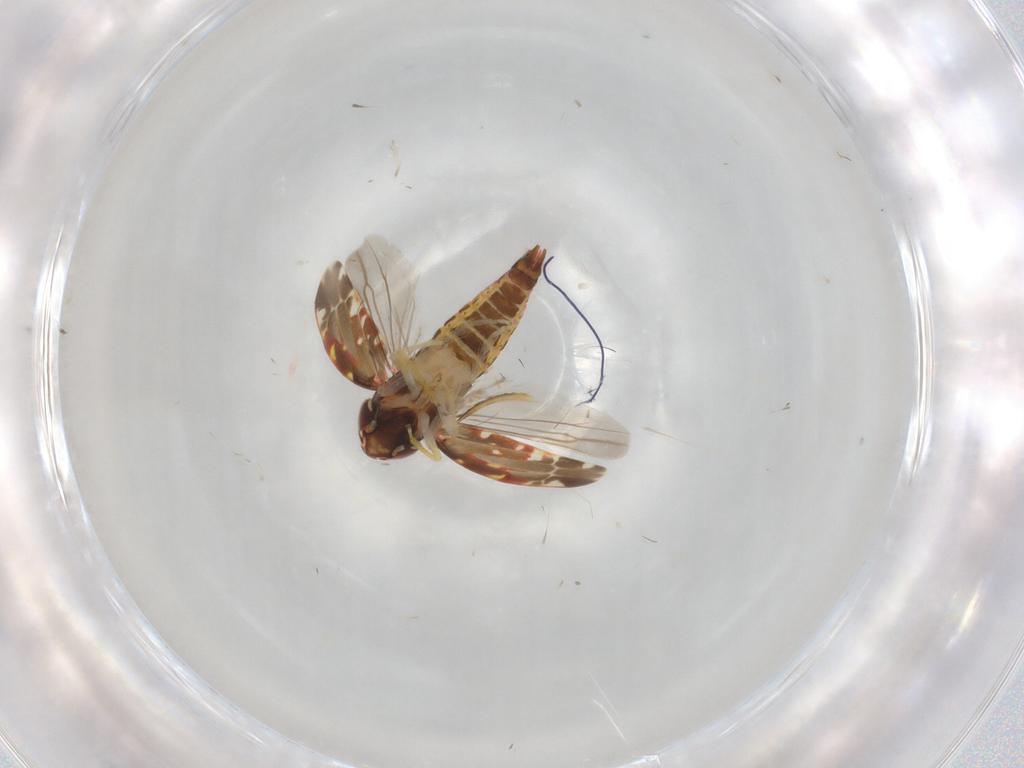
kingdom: Animalia
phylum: Arthropoda
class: Insecta
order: Hemiptera
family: Cicadellidae
